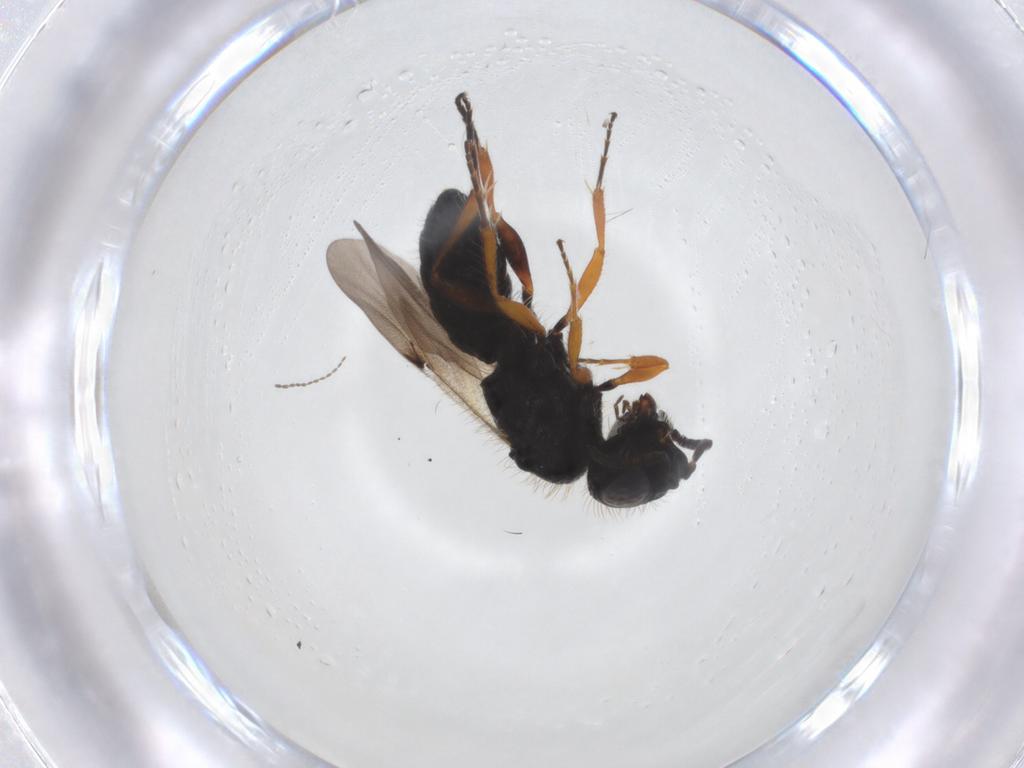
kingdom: Animalia
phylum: Arthropoda
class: Insecta
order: Hymenoptera
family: Scelionidae
